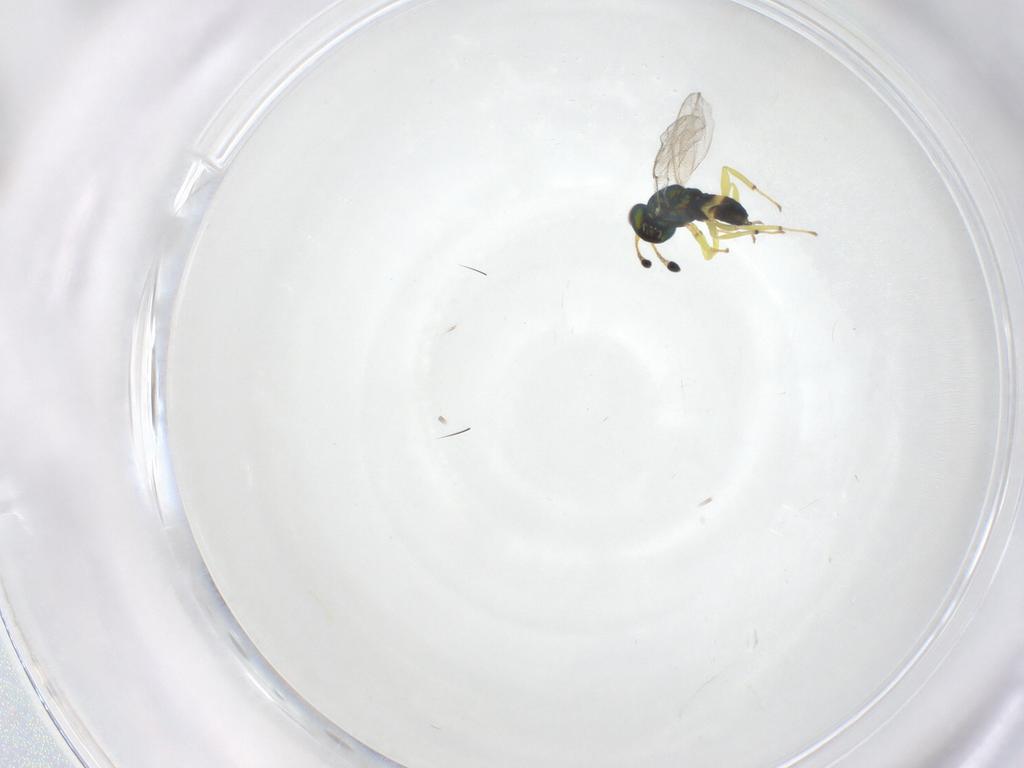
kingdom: Animalia
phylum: Arthropoda
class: Insecta
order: Hymenoptera
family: Pteromalidae
